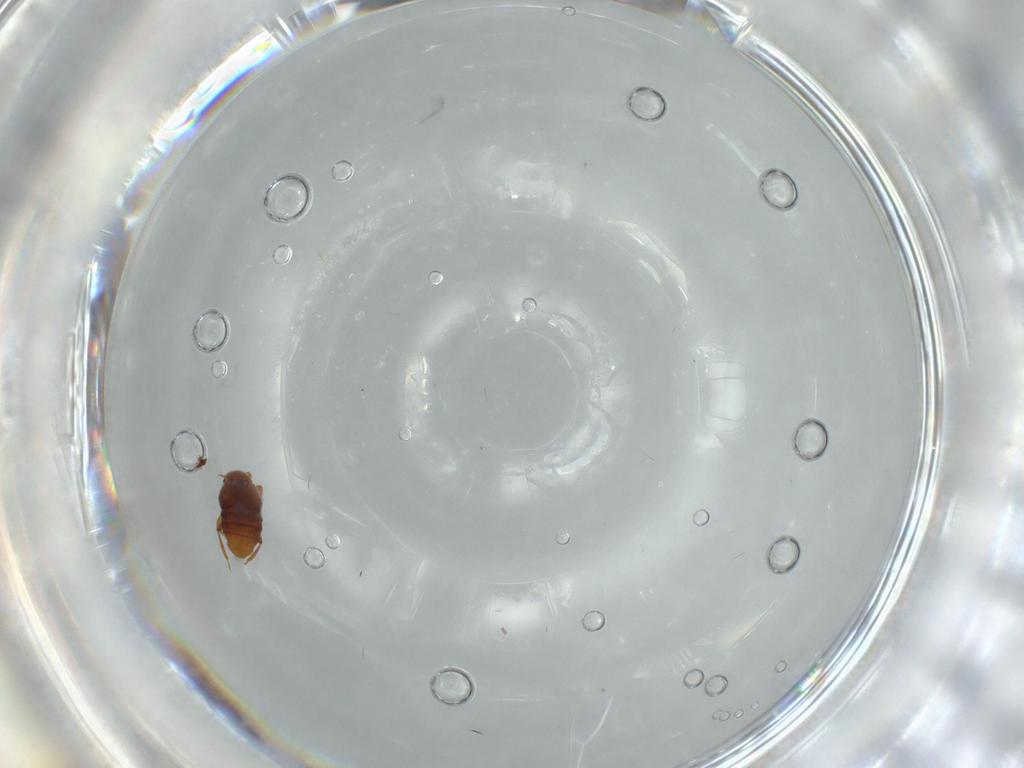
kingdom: Animalia
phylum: Arthropoda
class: Insecta
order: Coleoptera
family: Staphylinidae
